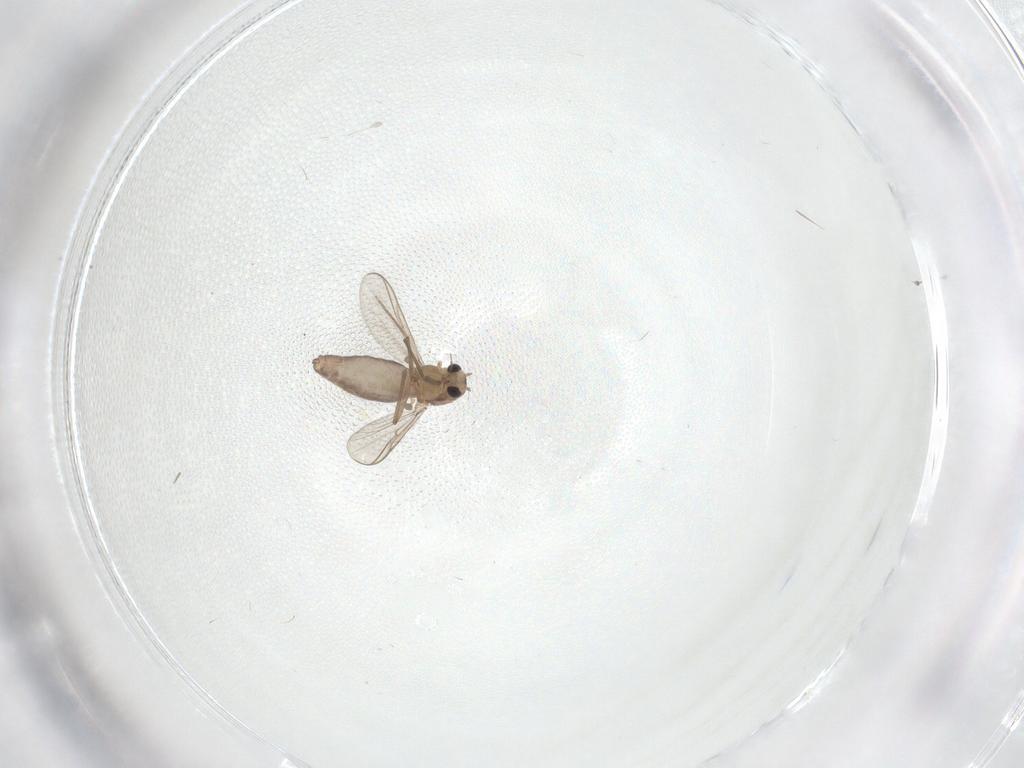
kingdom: Animalia
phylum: Arthropoda
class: Insecta
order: Diptera
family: Chironomidae
